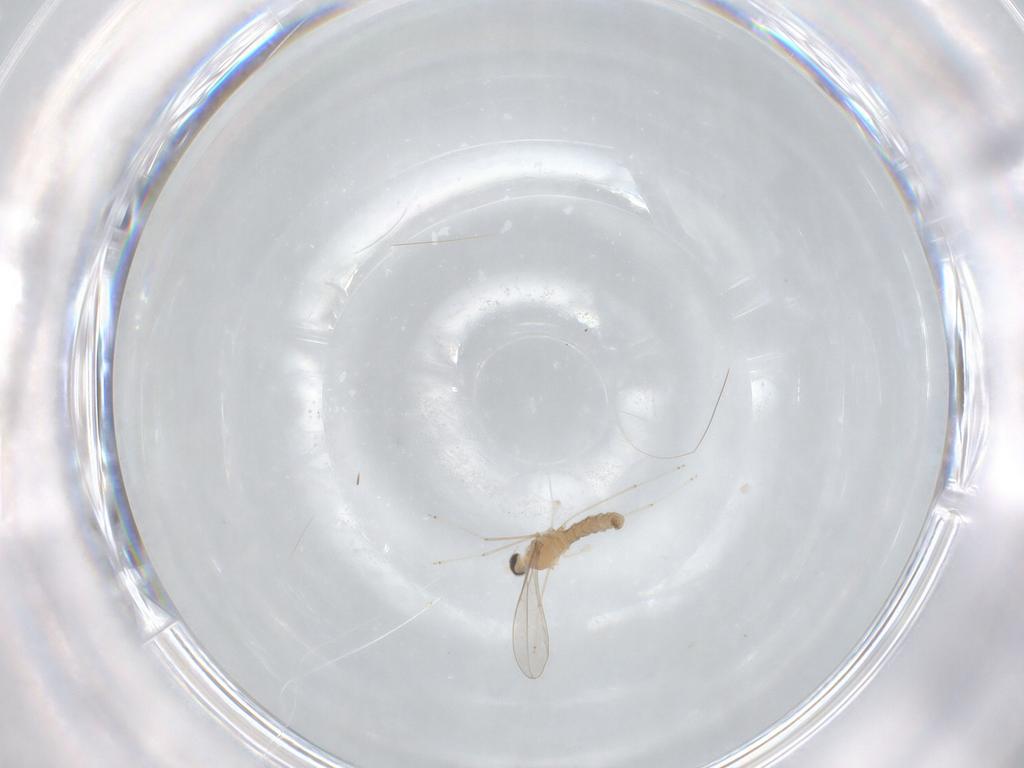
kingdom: Animalia
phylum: Arthropoda
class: Insecta
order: Diptera
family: Cecidomyiidae
